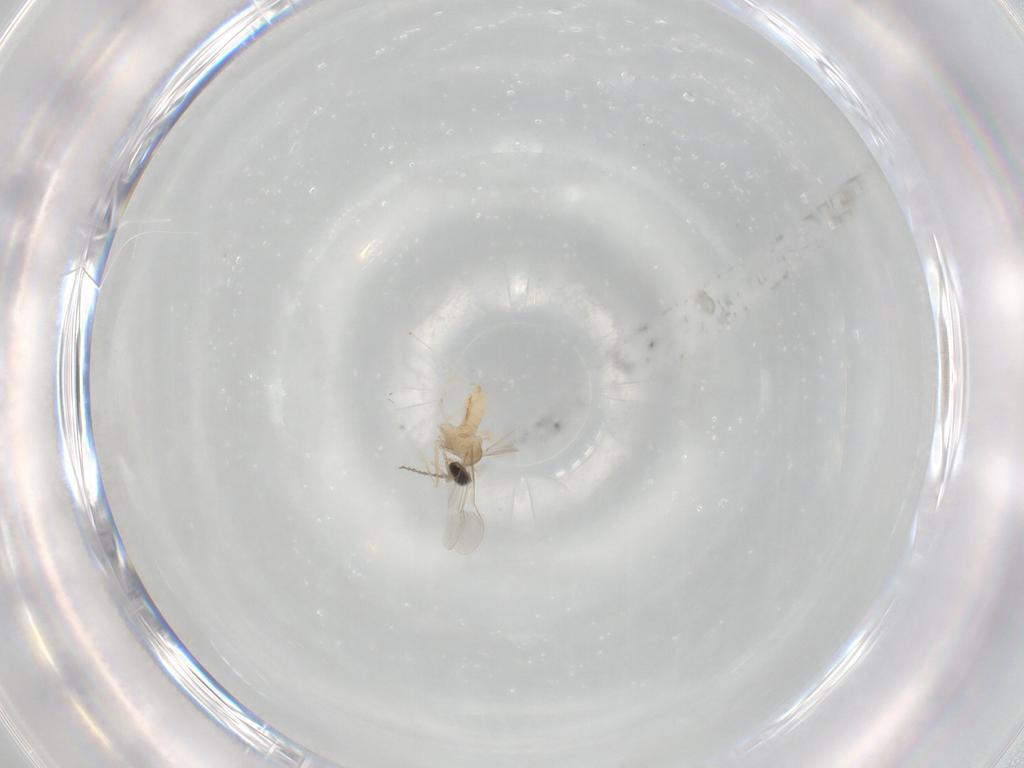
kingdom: Animalia
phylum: Arthropoda
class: Insecta
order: Diptera
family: Cecidomyiidae
